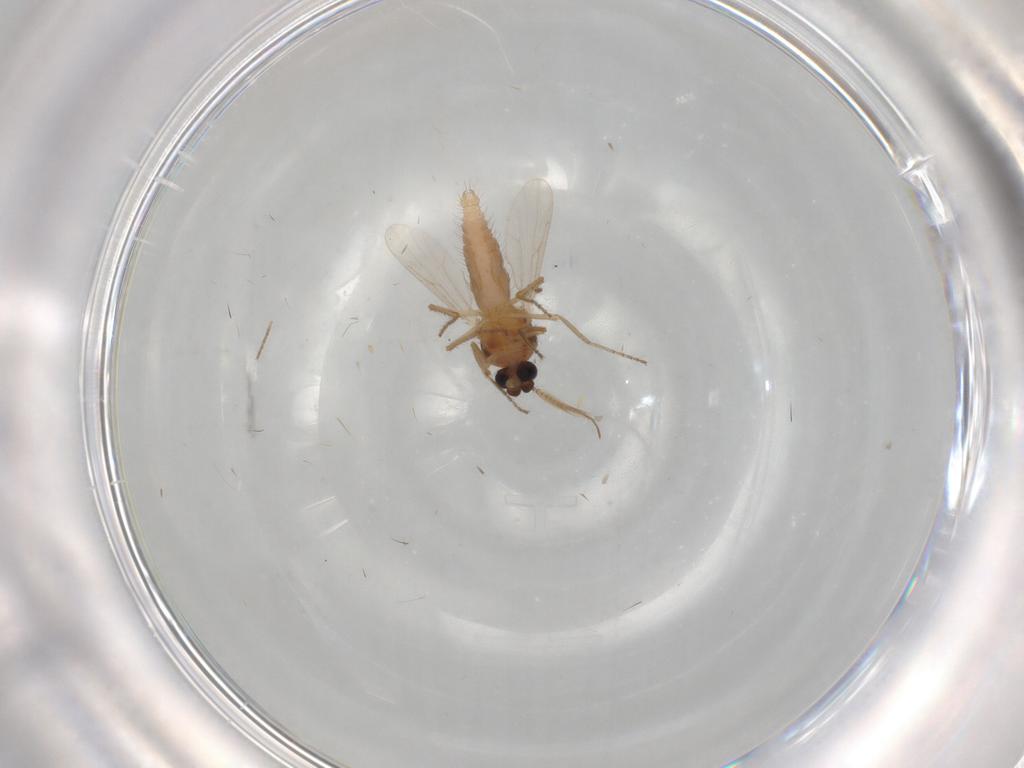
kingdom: Animalia
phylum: Arthropoda
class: Insecta
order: Diptera
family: Ceratopogonidae
